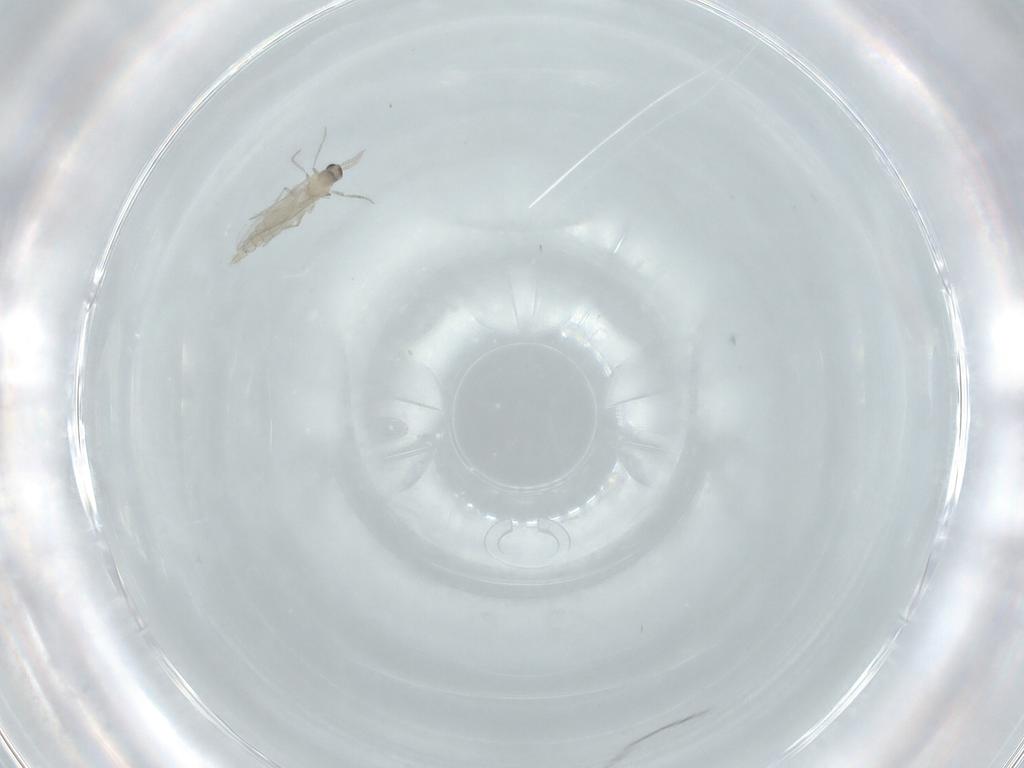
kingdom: Animalia
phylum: Arthropoda
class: Insecta
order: Diptera
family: Cecidomyiidae
